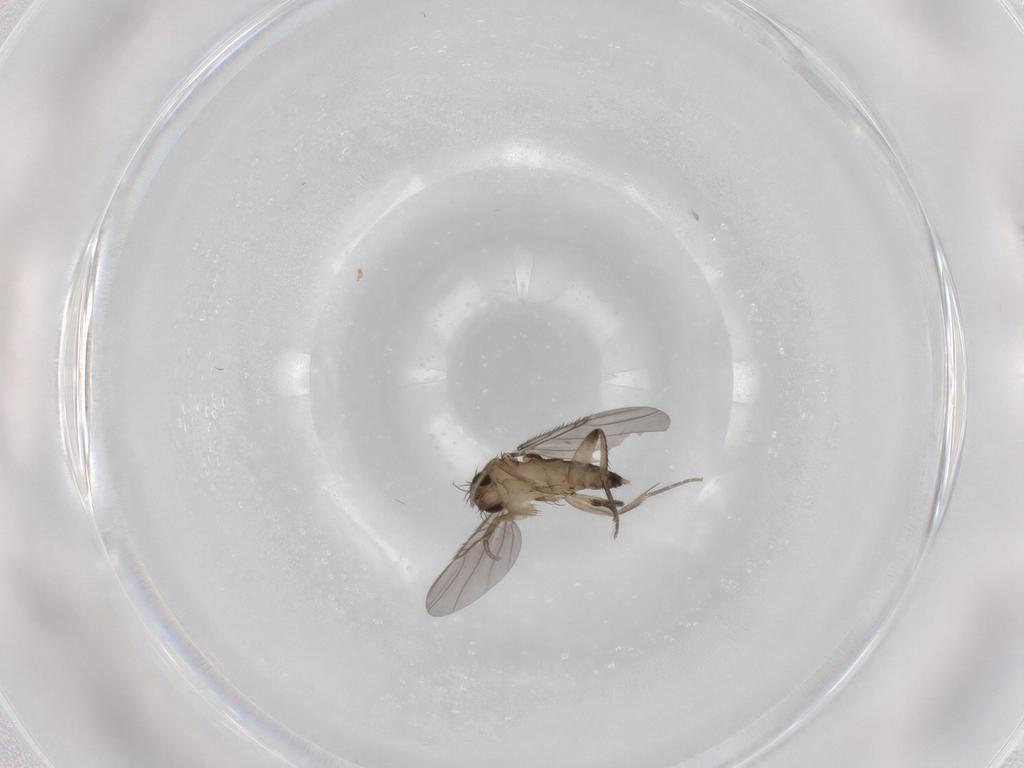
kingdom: Animalia
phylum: Arthropoda
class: Insecta
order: Diptera
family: Phoridae
